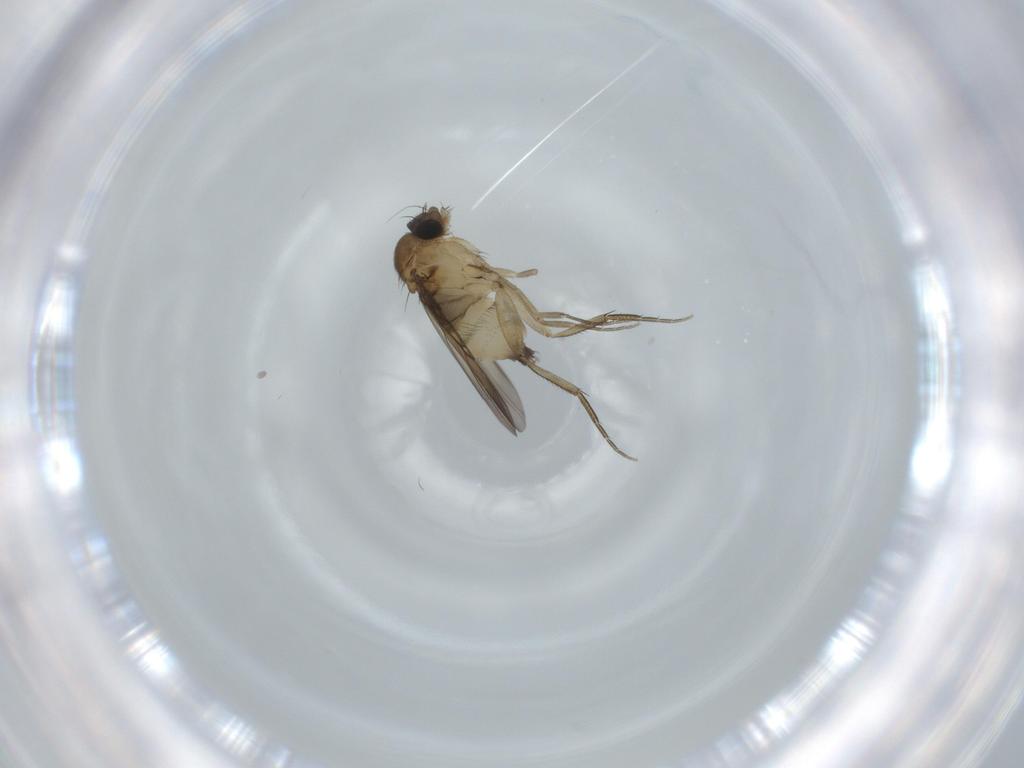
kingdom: Animalia
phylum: Arthropoda
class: Insecta
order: Diptera
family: Phoridae
